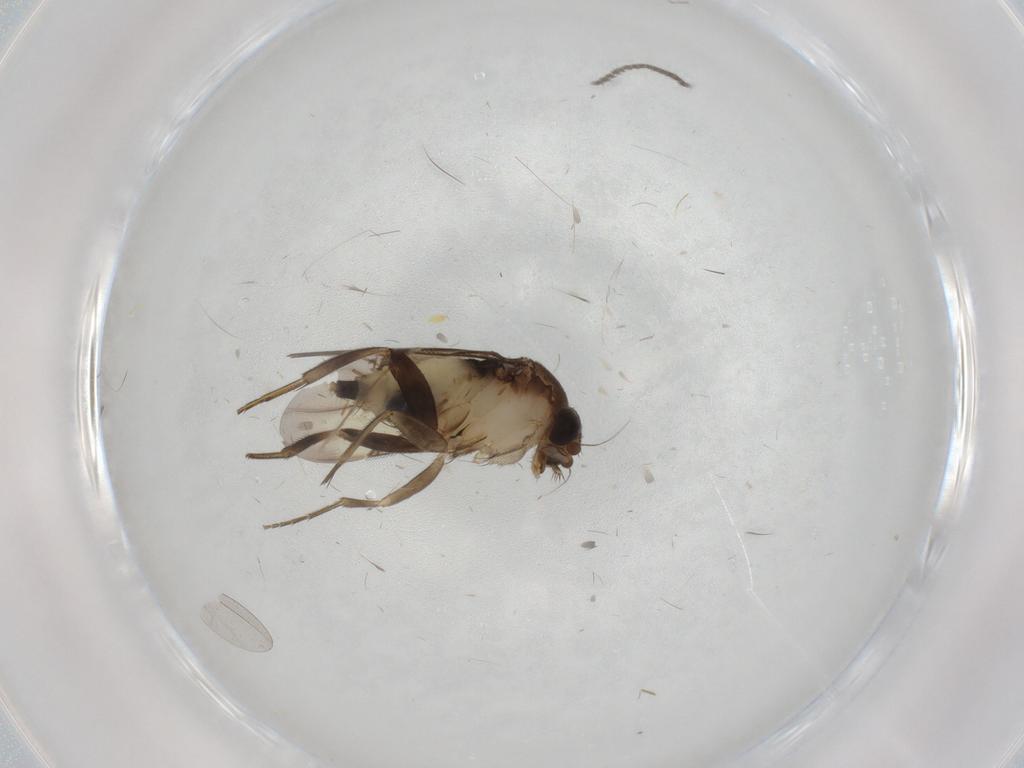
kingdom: Animalia
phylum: Arthropoda
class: Insecta
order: Diptera
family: Sciaridae
